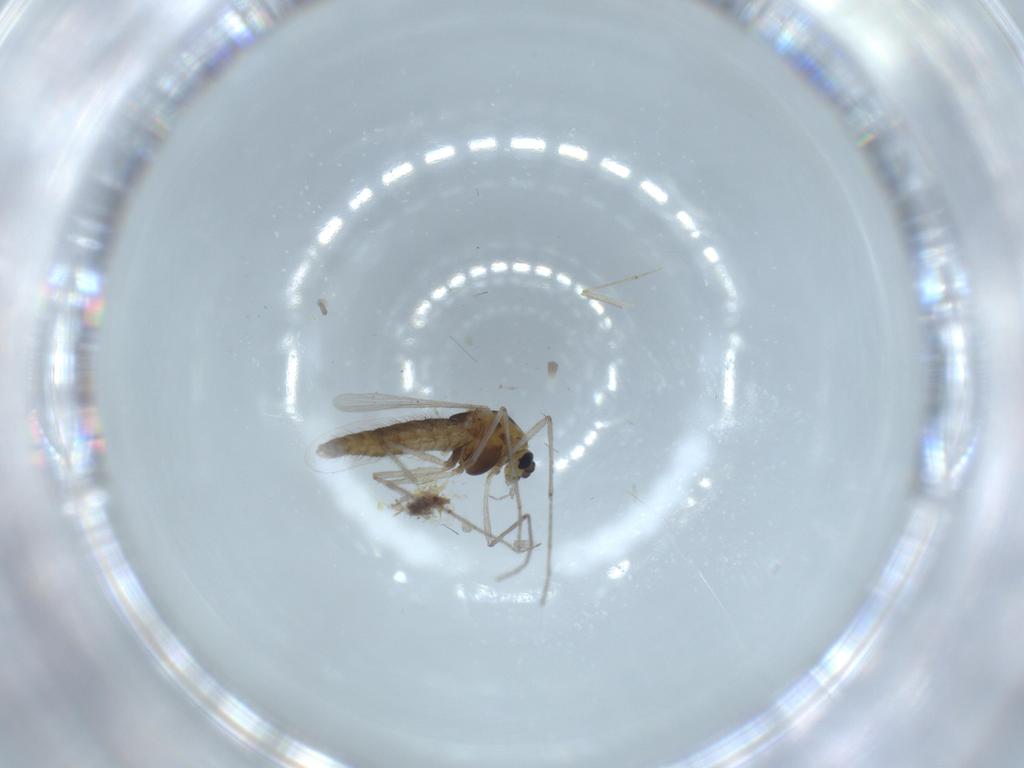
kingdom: Animalia
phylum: Arthropoda
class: Insecta
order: Diptera
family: Chironomidae
